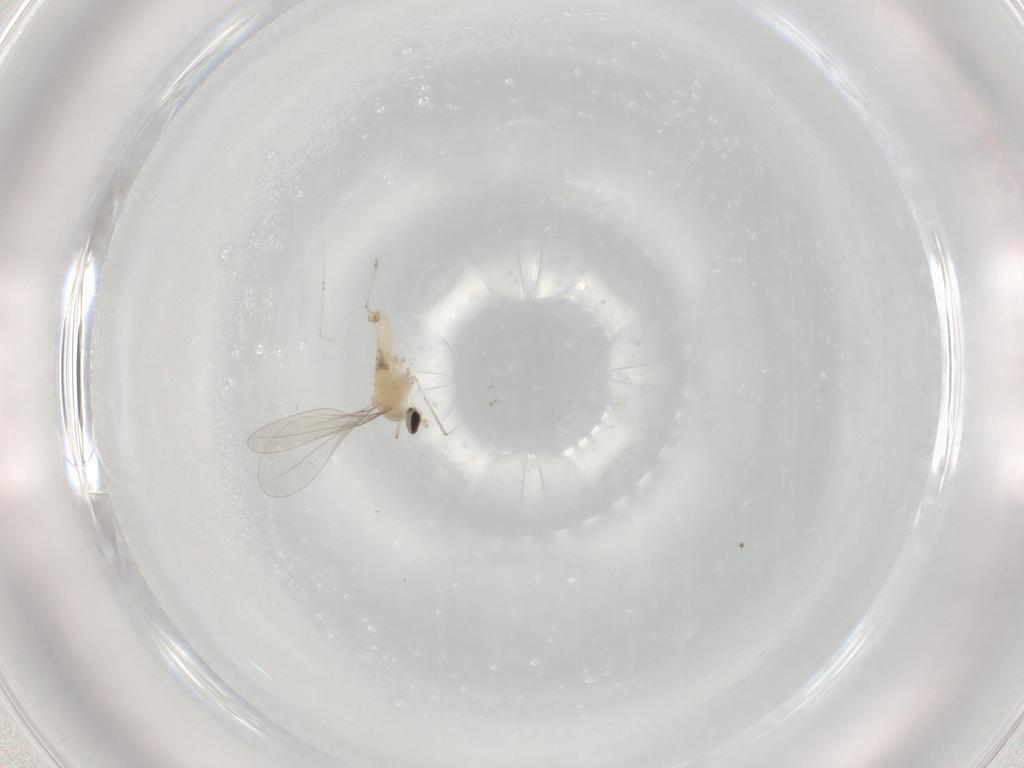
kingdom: Animalia
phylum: Arthropoda
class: Insecta
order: Diptera
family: Cecidomyiidae
